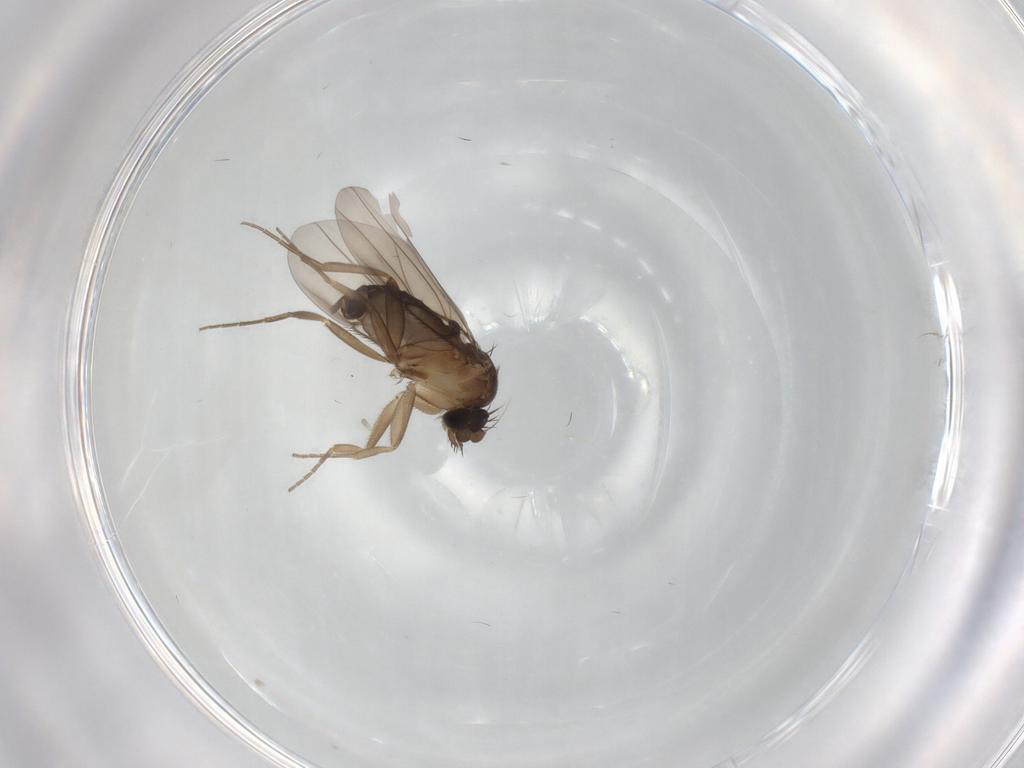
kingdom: Animalia
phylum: Arthropoda
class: Insecta
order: Diptera
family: Phoridae
